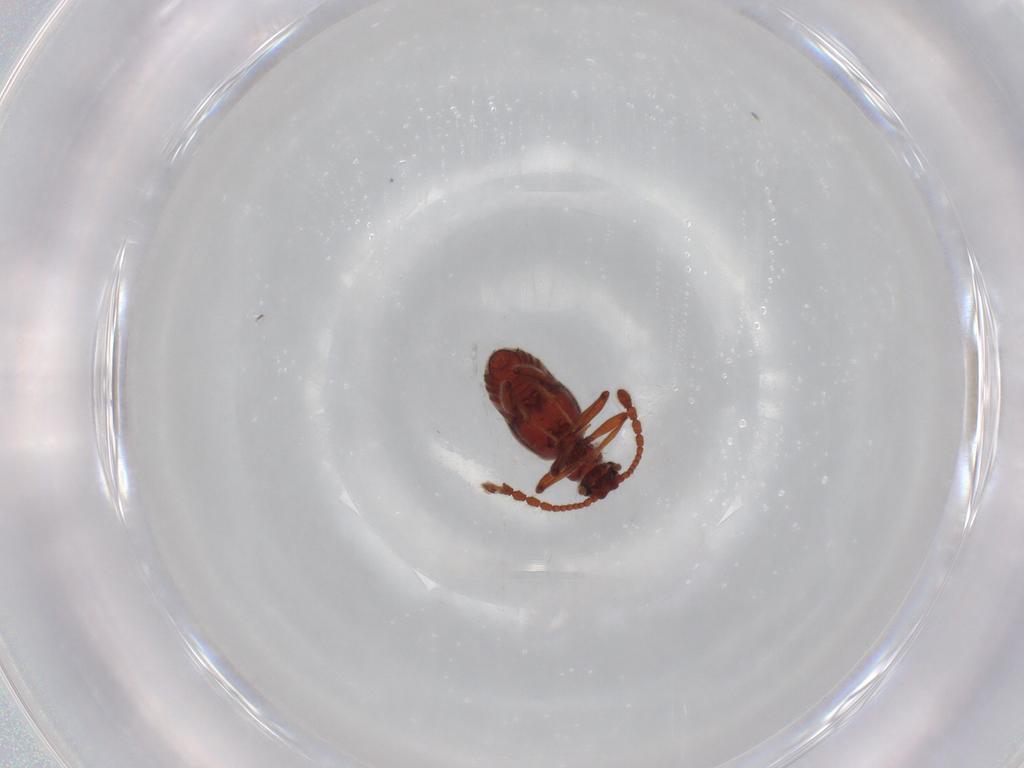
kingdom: Animalia
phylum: Arthropoda
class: Insecta
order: Coleoptera
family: Staphylinidae
